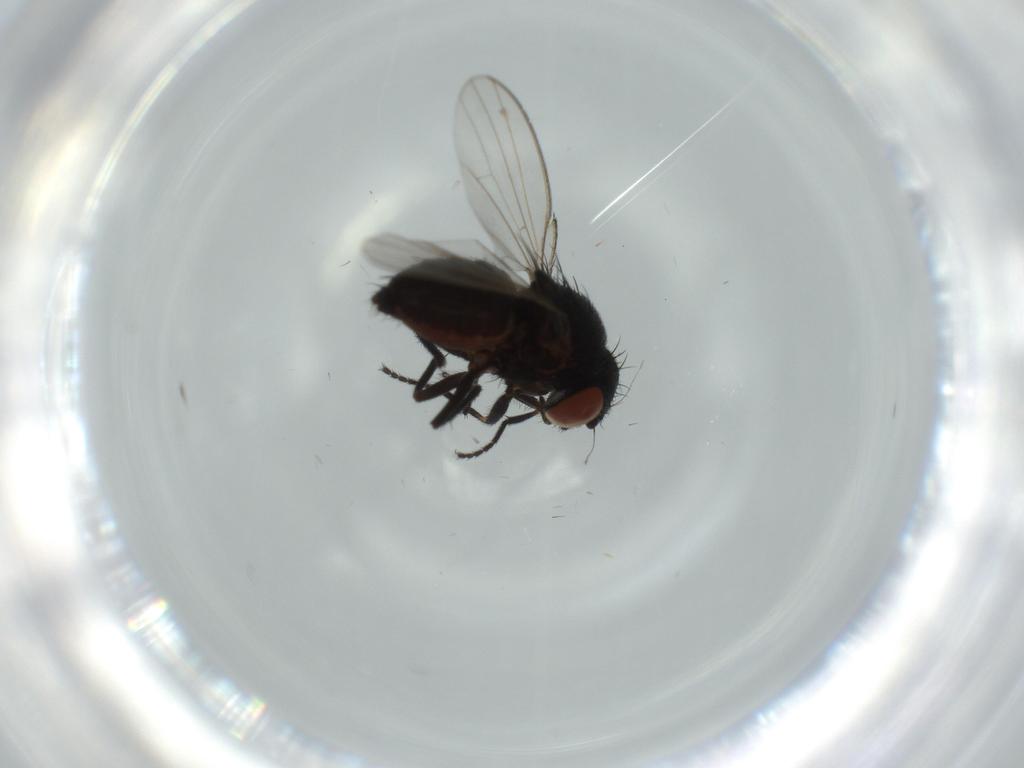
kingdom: Animalia
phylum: Arthropoda
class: Insecta
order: Diptera
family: Milichiidae
